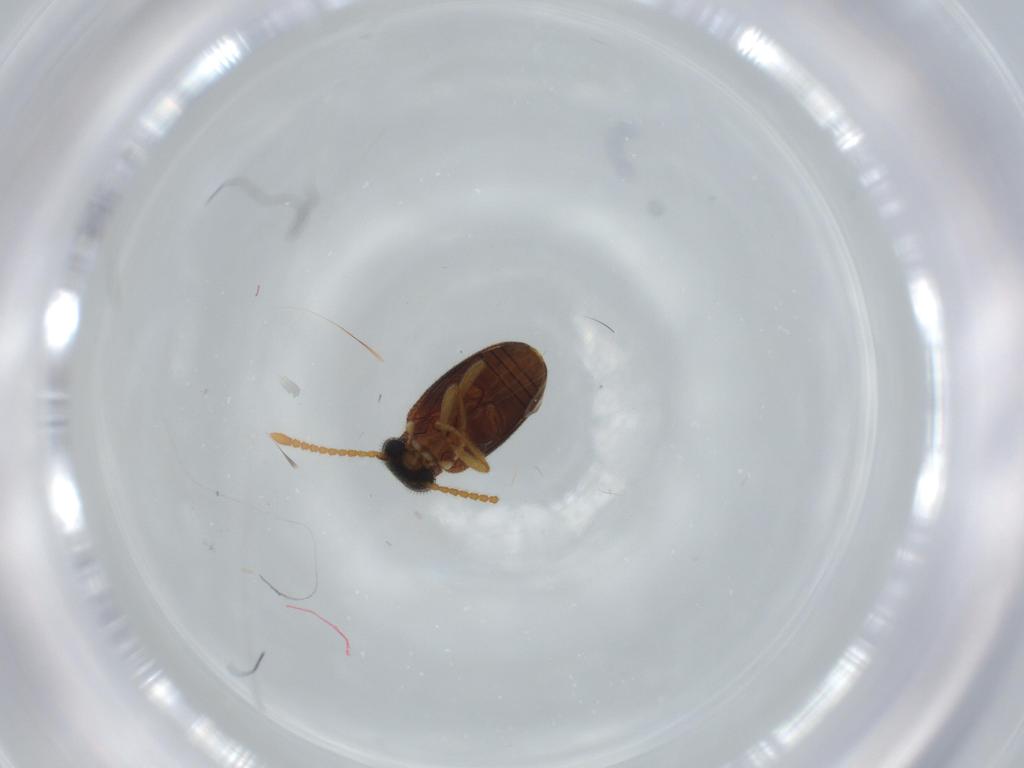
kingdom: Animalia
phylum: Arthropoda
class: Insecta
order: Coleoptera
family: Aderidae
